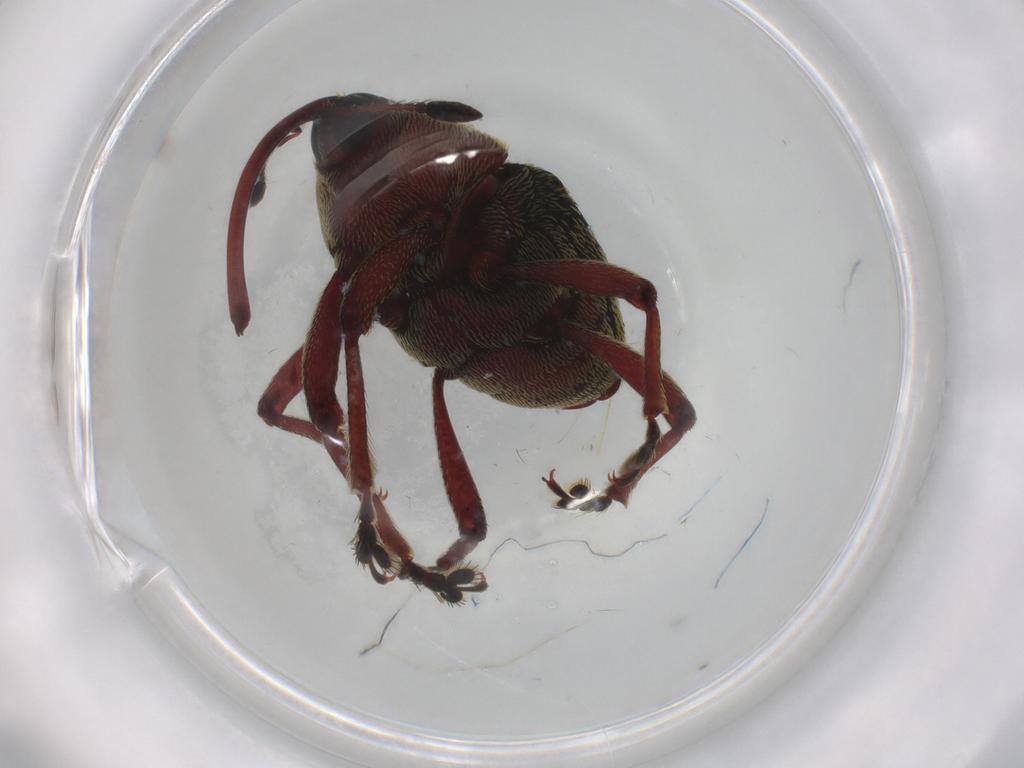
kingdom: Animalia
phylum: Arthropoda
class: Insecta
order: Coleoptera
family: Curculionidae
